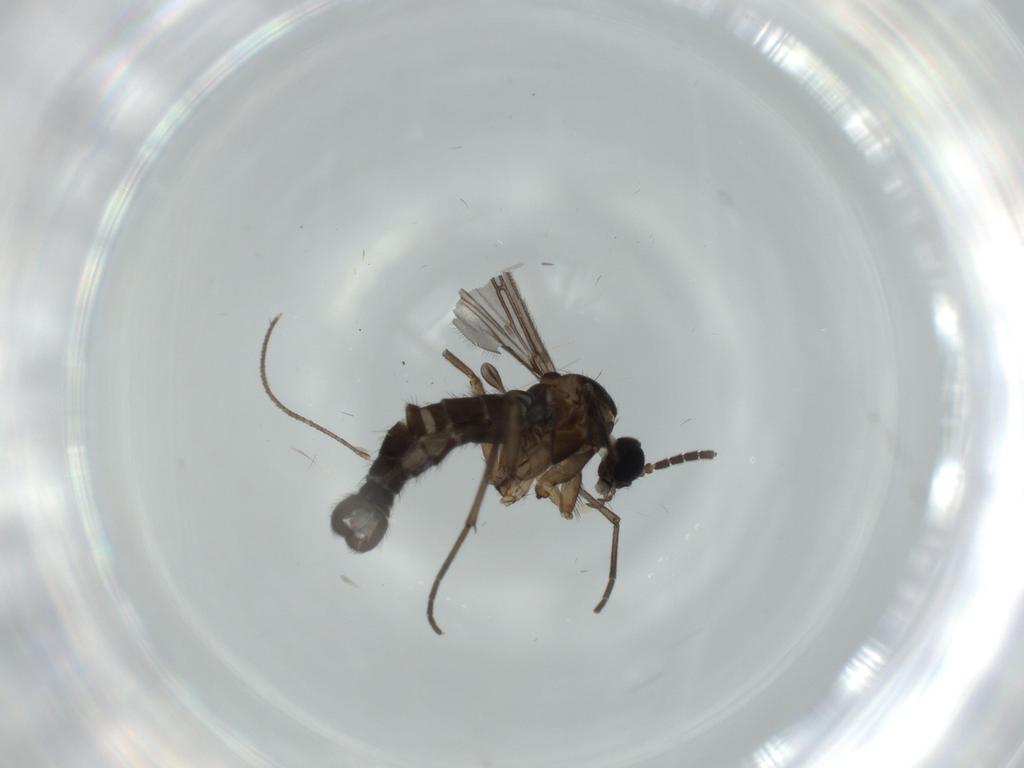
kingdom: Animalia
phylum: Arthropoda
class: Insecta
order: Diptera
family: Sciaridae
